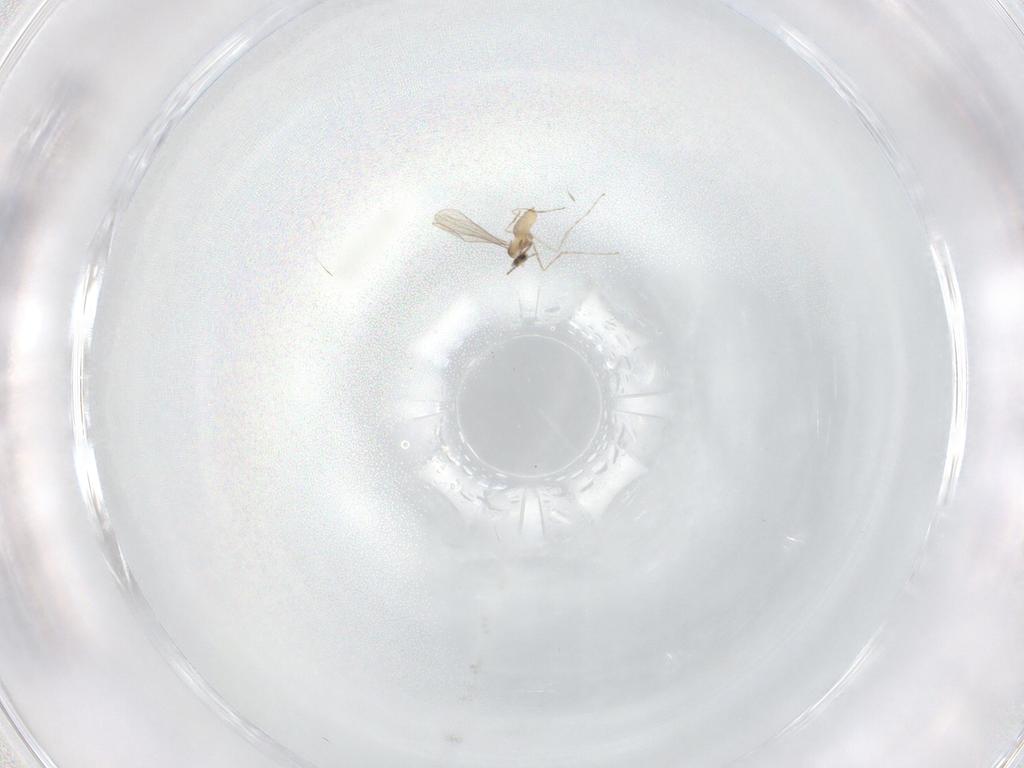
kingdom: Animalia
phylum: Arthropoda
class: Insecta
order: Diptera
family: Cecidomyiidae
